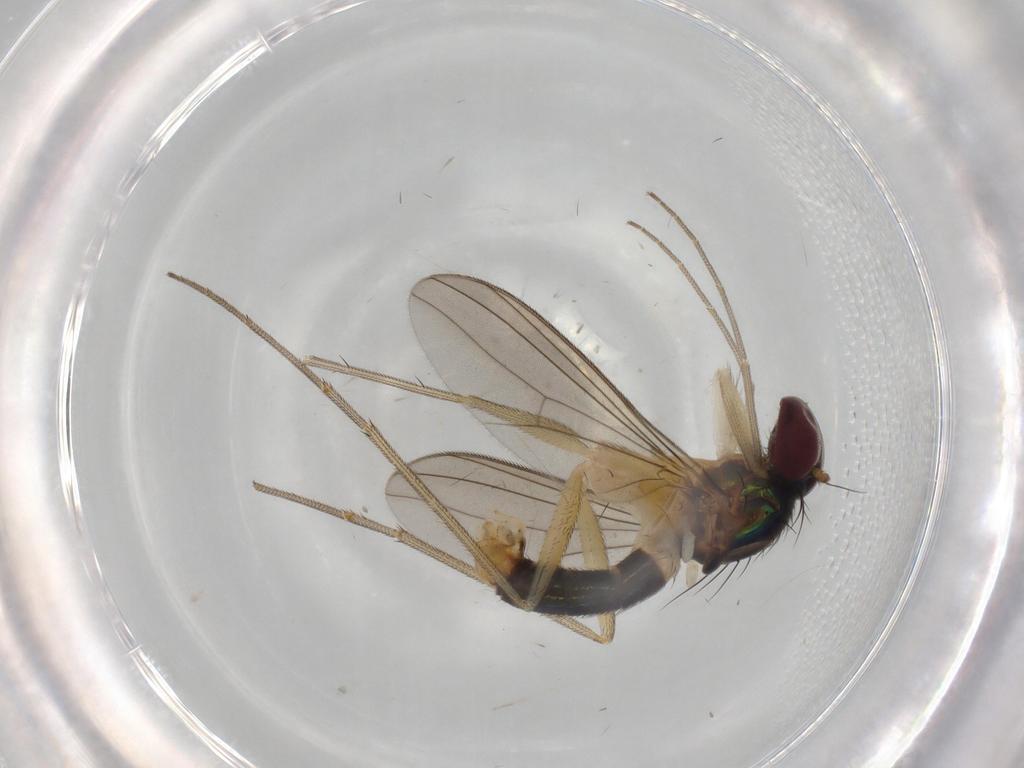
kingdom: Animalia
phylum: Arthropoda
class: Insecta
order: Diptera
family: Dolichopodidae
